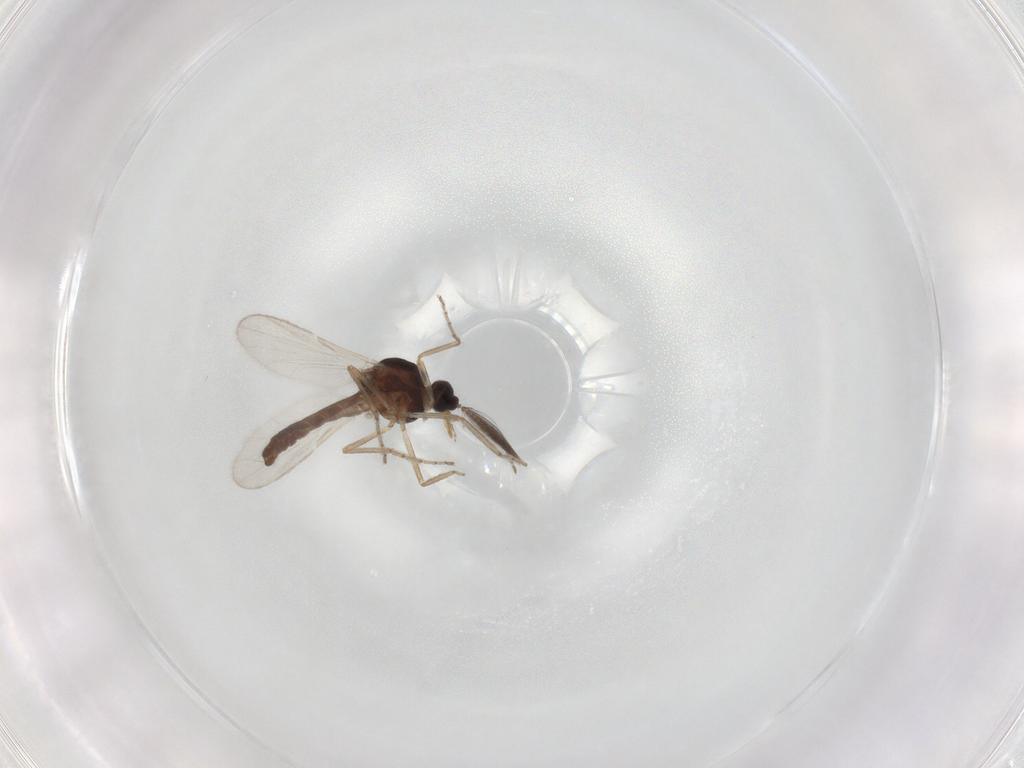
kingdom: Animalia
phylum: Arthropoda
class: Insecta
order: Diptera
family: Ceratopogonidae
